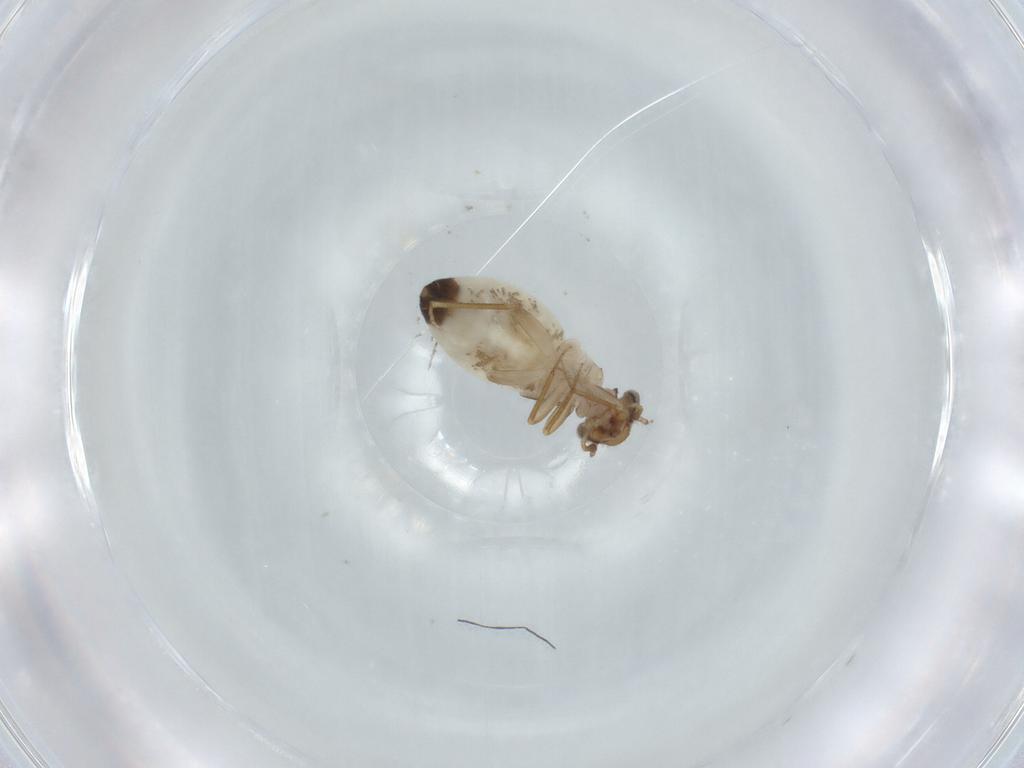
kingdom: Animalia
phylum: Arthropoda
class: Insecta
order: Psocodea
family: Lepidopsocidae
